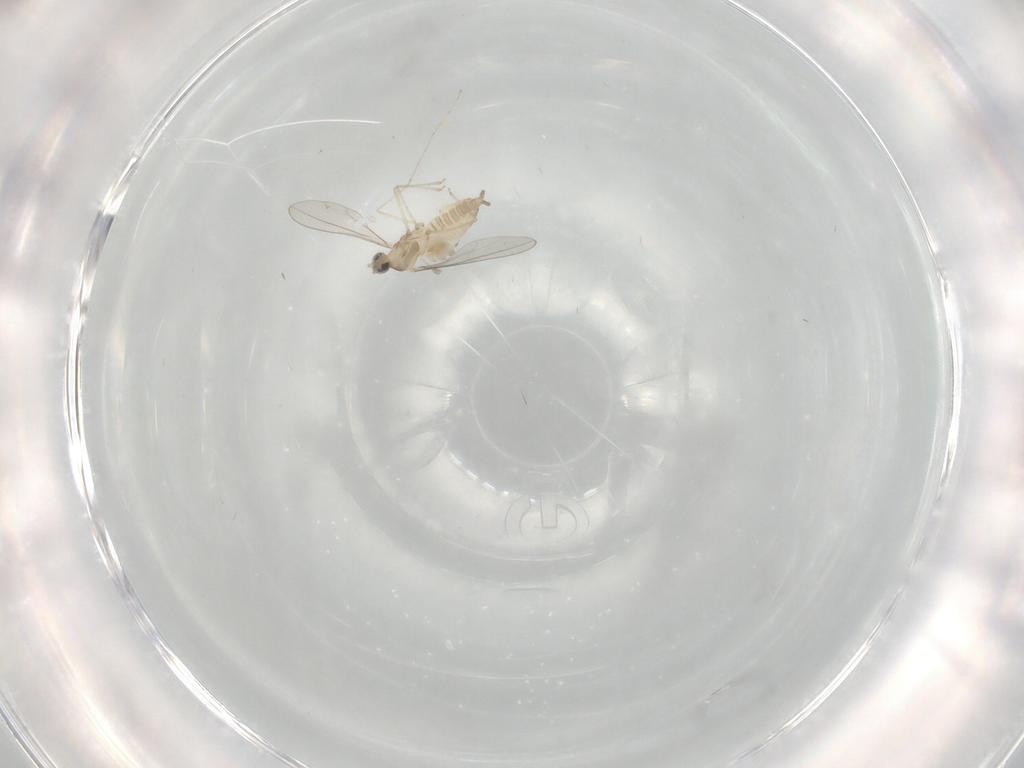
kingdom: Animalia
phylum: Arthropoda
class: Insecta
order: Diptera
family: Cecidomyiidae
